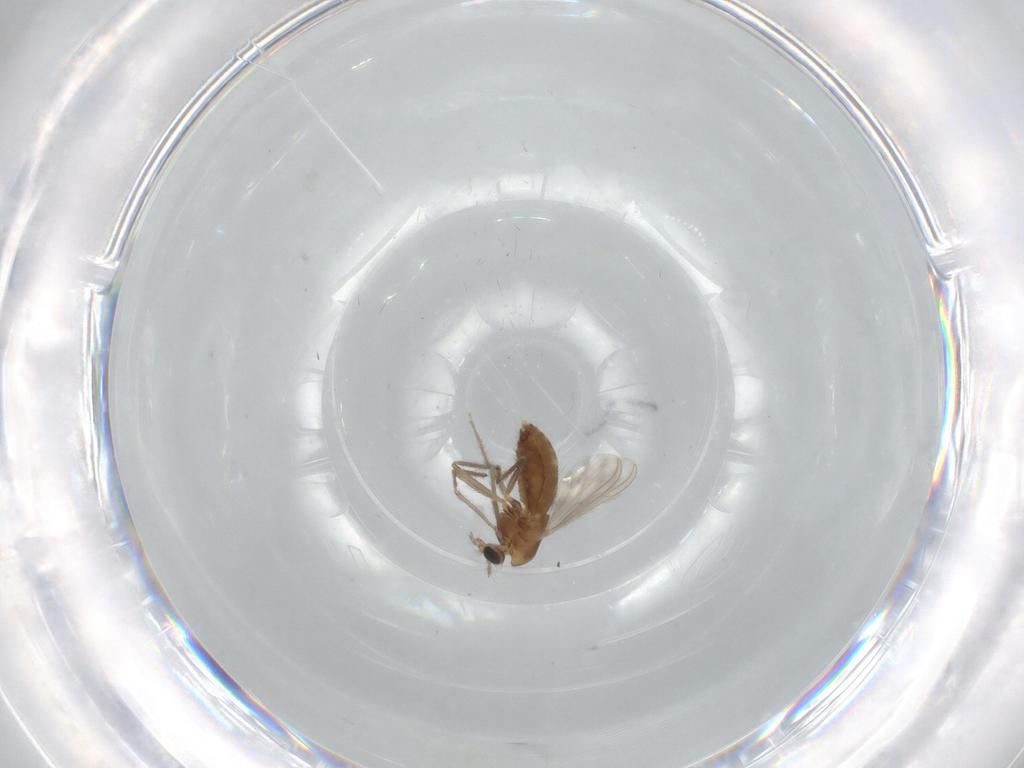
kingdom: Animalia
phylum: Arthropoda
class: Insecta
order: Diptera
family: Chironomidae
